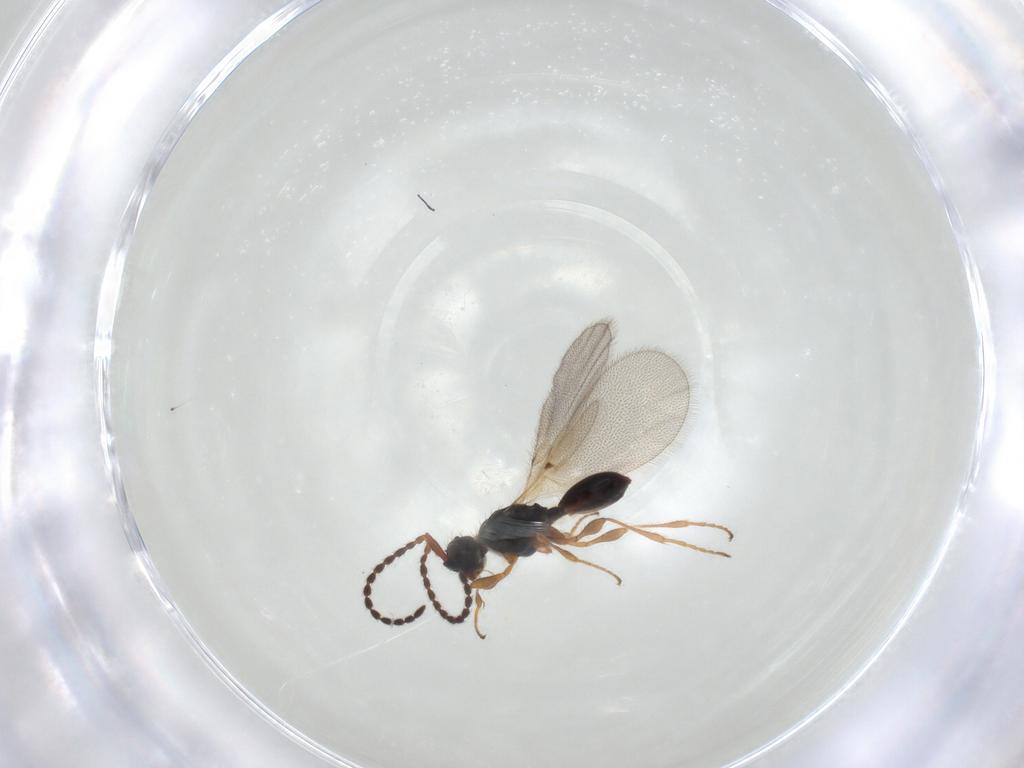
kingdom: Animalia
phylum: Arthropoda
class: Insecta
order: Hymenoptera
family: Diapriidae
